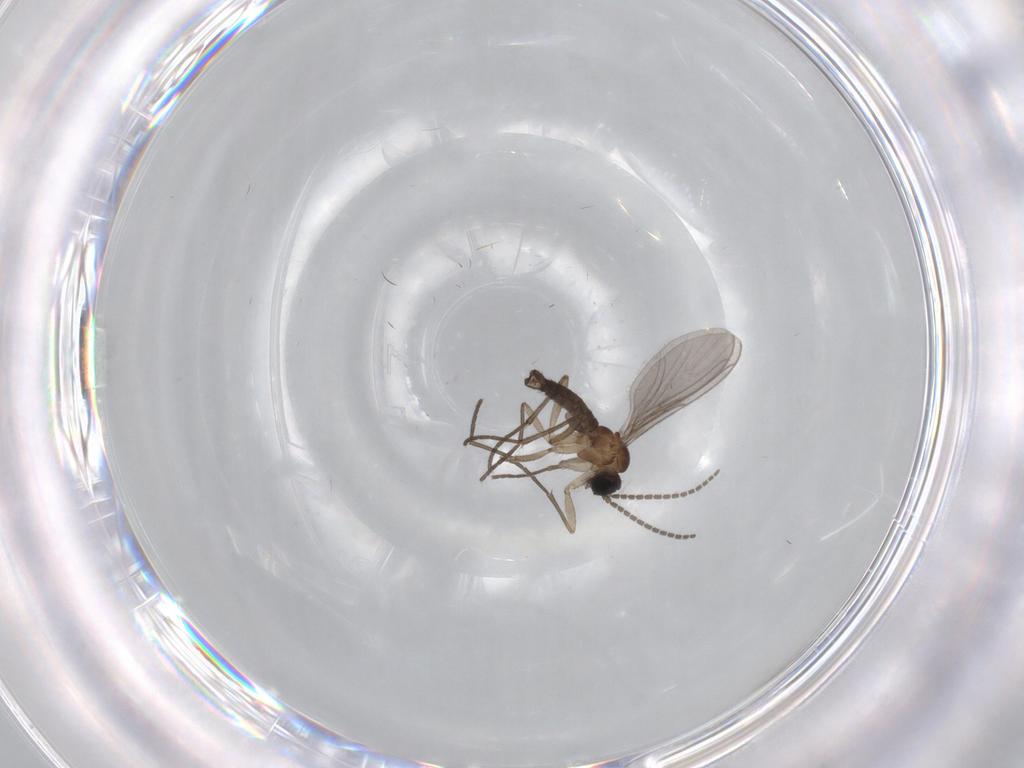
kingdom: Animalia
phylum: Arthropoda
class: Insecta
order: Diptera
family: Sciaridae
